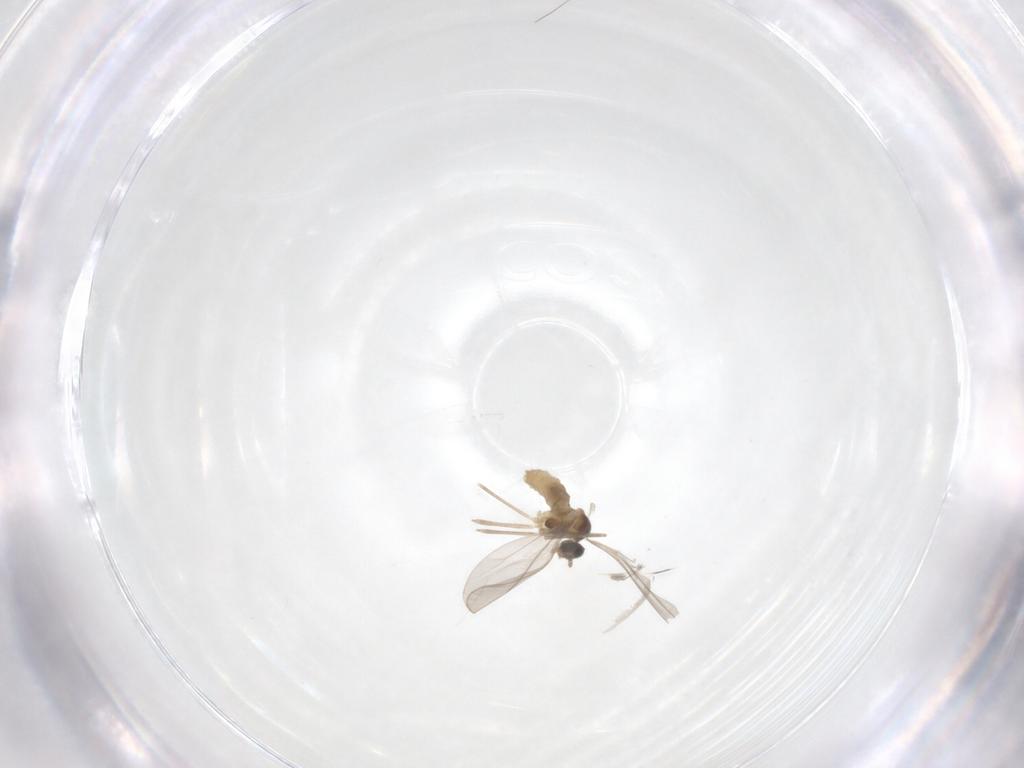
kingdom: Animalia
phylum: Arthropoda
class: Insecta
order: Diptera
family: Cecidomyiidae
